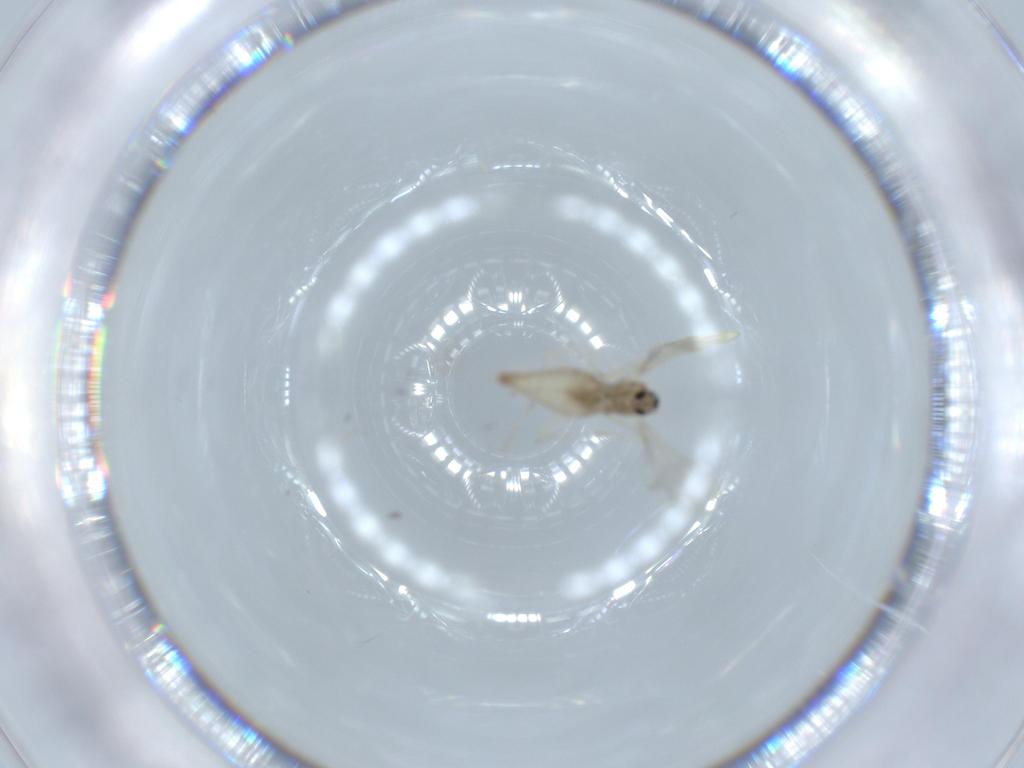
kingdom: Animalia
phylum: Arthropoda
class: Insecta
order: Diptera
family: Cecidomyiidae
